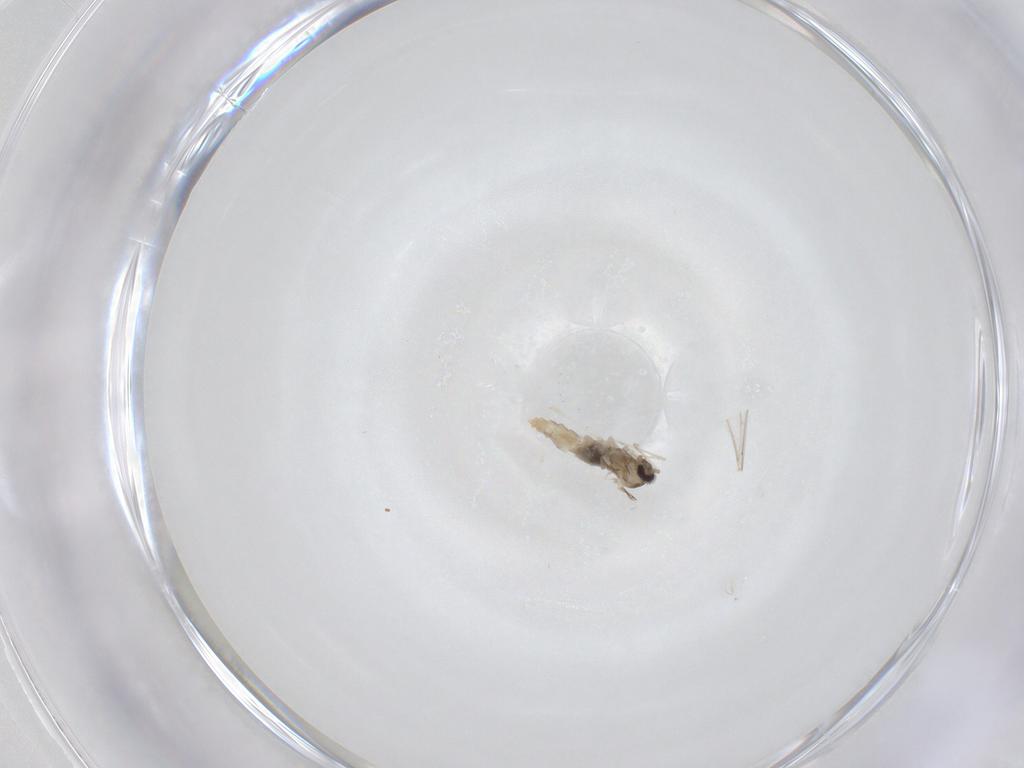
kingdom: Animalia
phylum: Arthropoda
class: Insecta
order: Diptera
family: Cecidomyiidae
